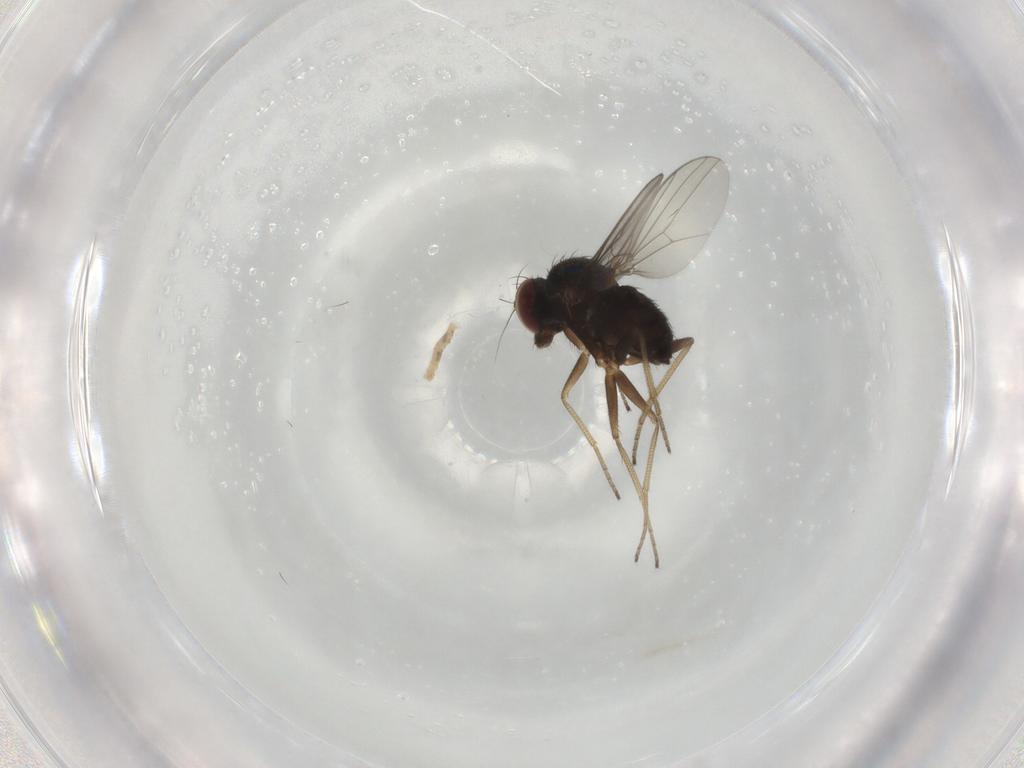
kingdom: Animalia
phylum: Arthropoda
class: Insecta
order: Diptera
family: Dolichopodidae
